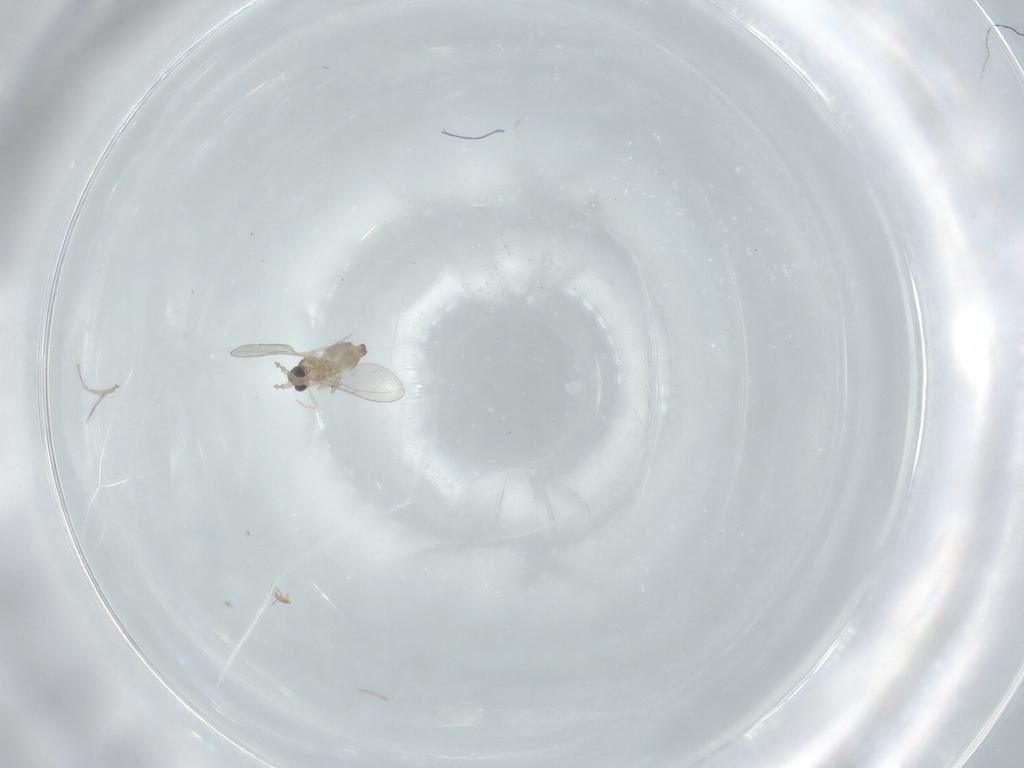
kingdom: Animalia
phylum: Arthropoda
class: Insecta
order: Diptera
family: Cecidomyiidae
